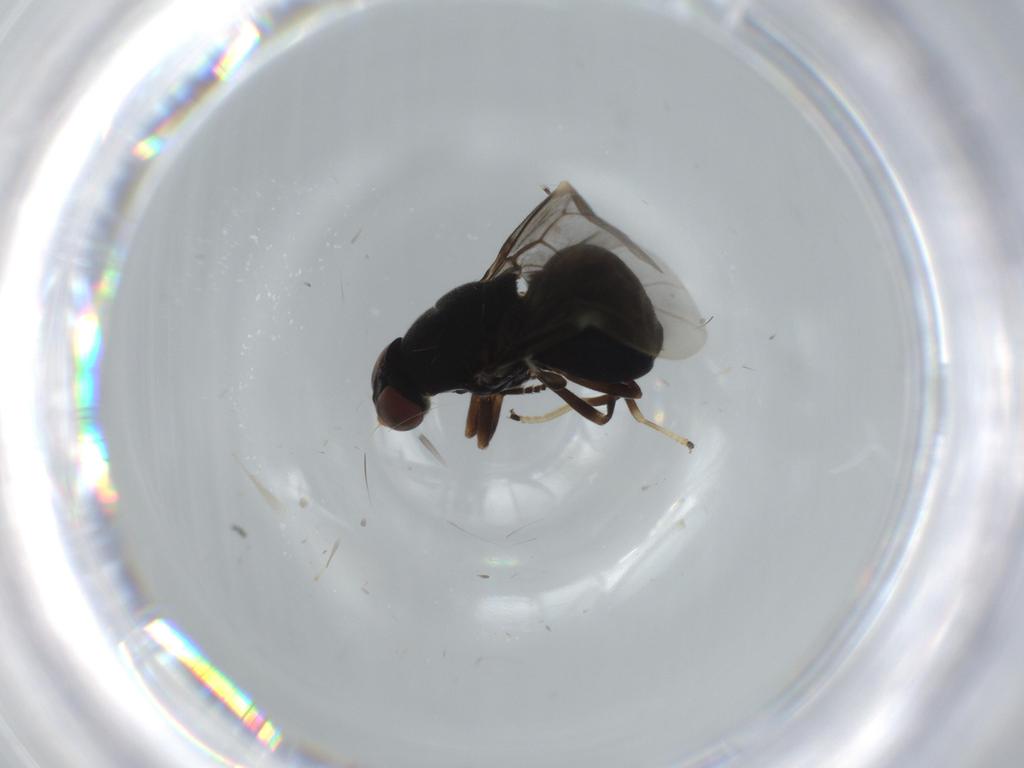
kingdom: Animalia
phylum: Arthropoda
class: Insecta
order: Diptera
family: Stratiomyidae
